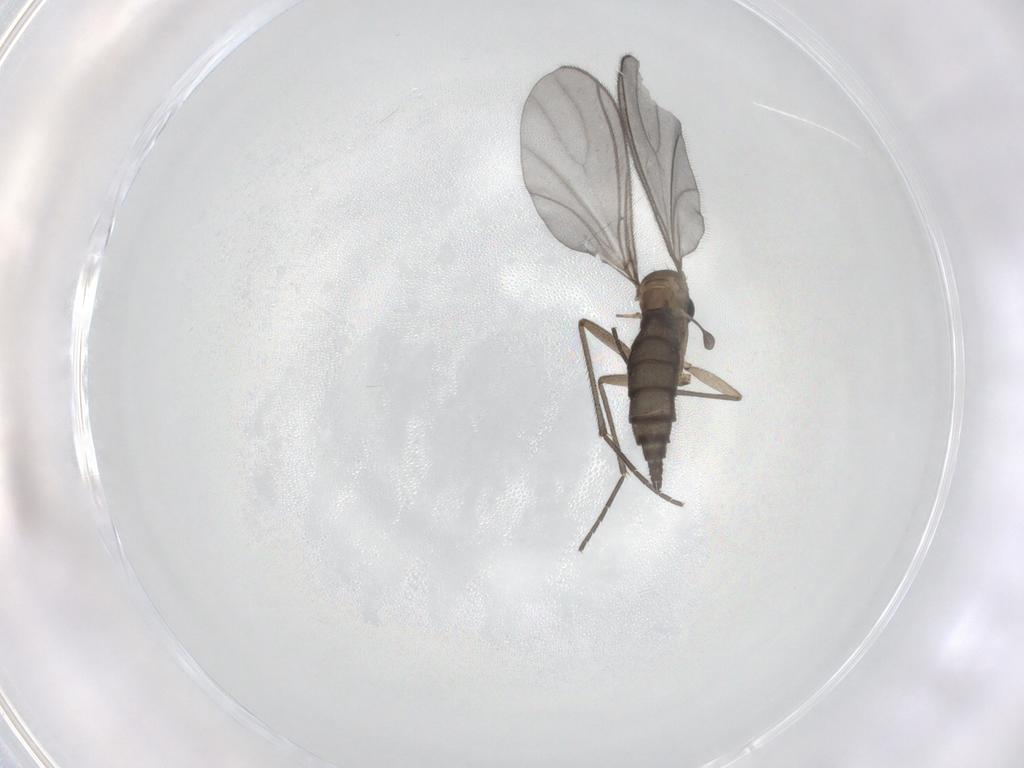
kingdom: Animalia
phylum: Arthropoda
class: Insecta
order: Diptera
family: Sciaridae
